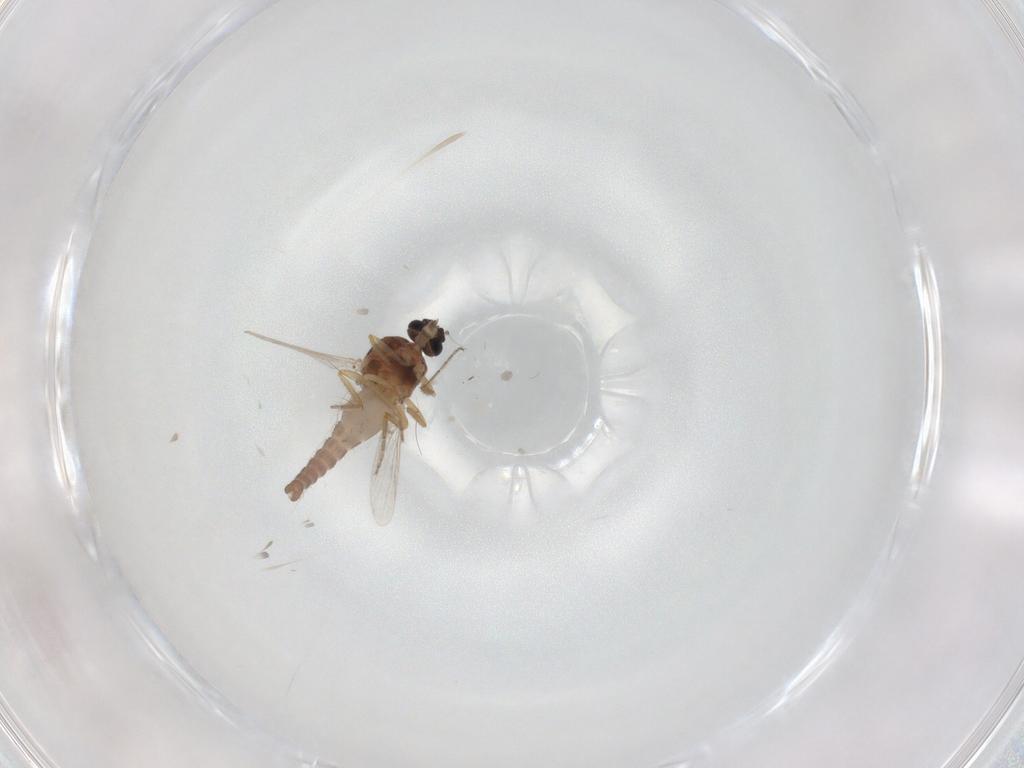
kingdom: Animalia
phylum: Arthropoda
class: Insecta
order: Diptera
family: Ceratopogonidae
